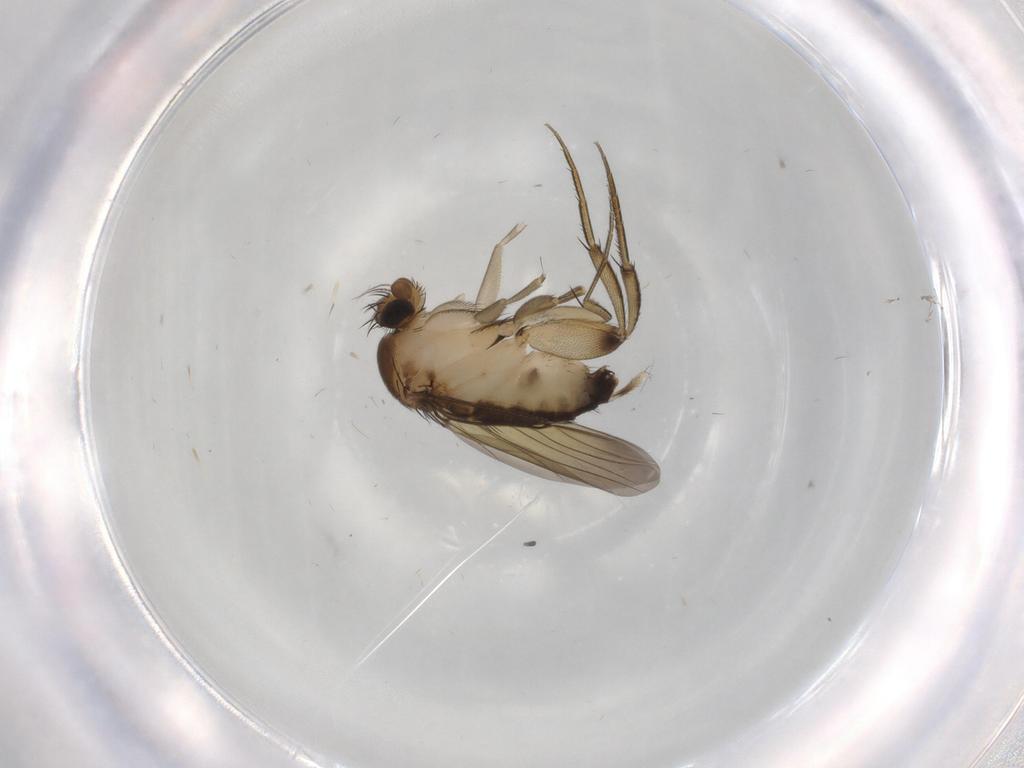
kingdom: Animalia
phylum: Arthropoda
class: Insecta
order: Diptera
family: Phoridae
